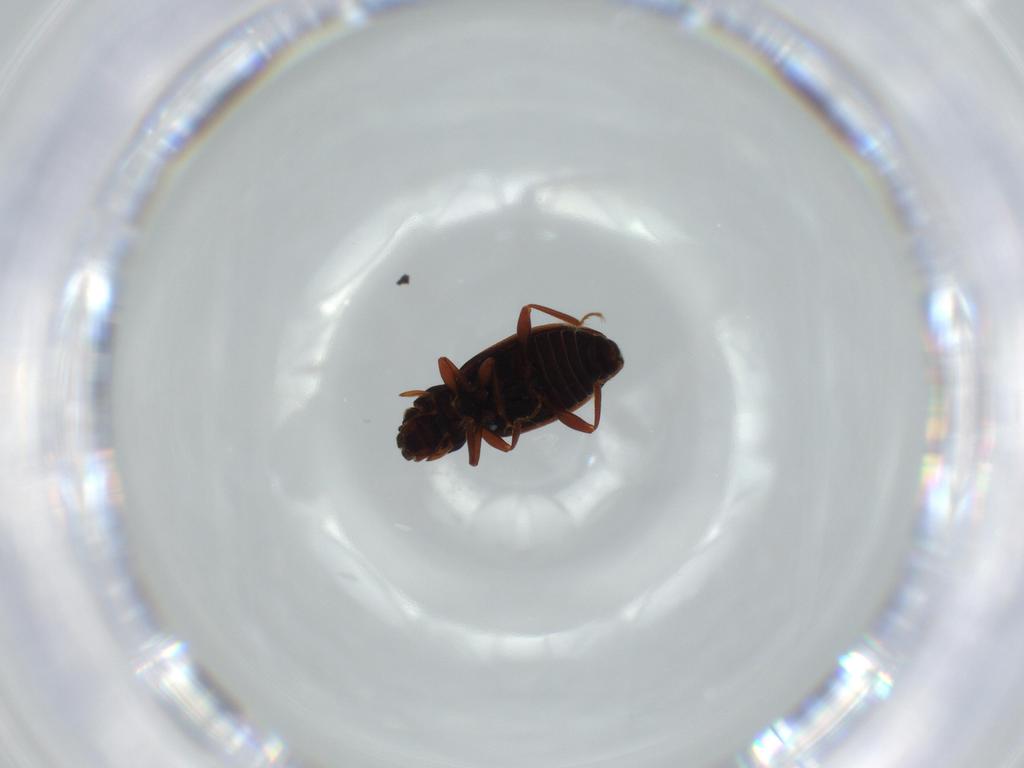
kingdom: Animalia
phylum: Arthropoda
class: Insecta
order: Coleoptera
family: Hydraenidae
